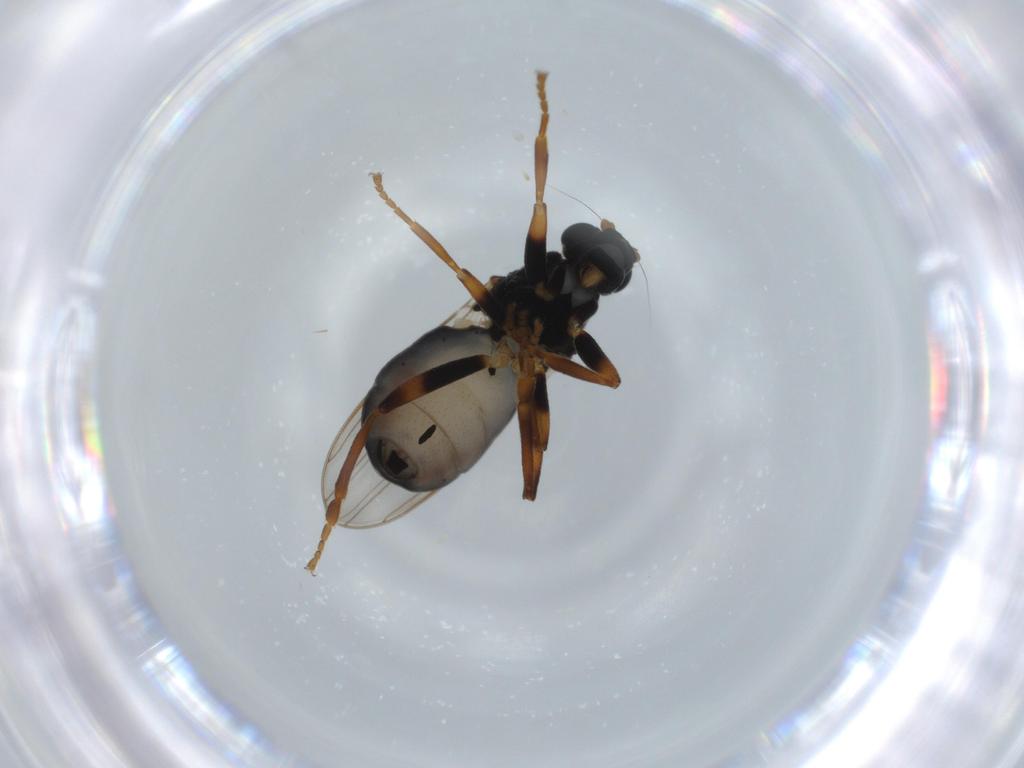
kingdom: Animalia
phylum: Arthropoda
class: Insecta
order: Diptera
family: Sphaeroceridae
